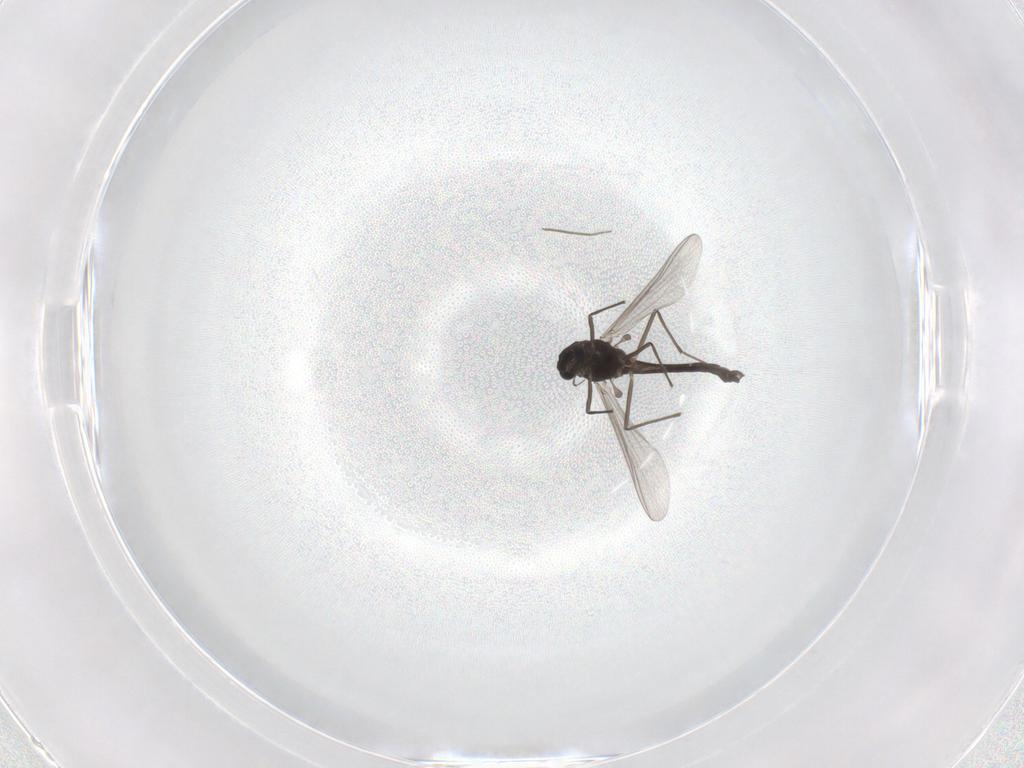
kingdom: Animalia
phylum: Arthropoda
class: Insecta
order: Diptera
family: Chironomidae
